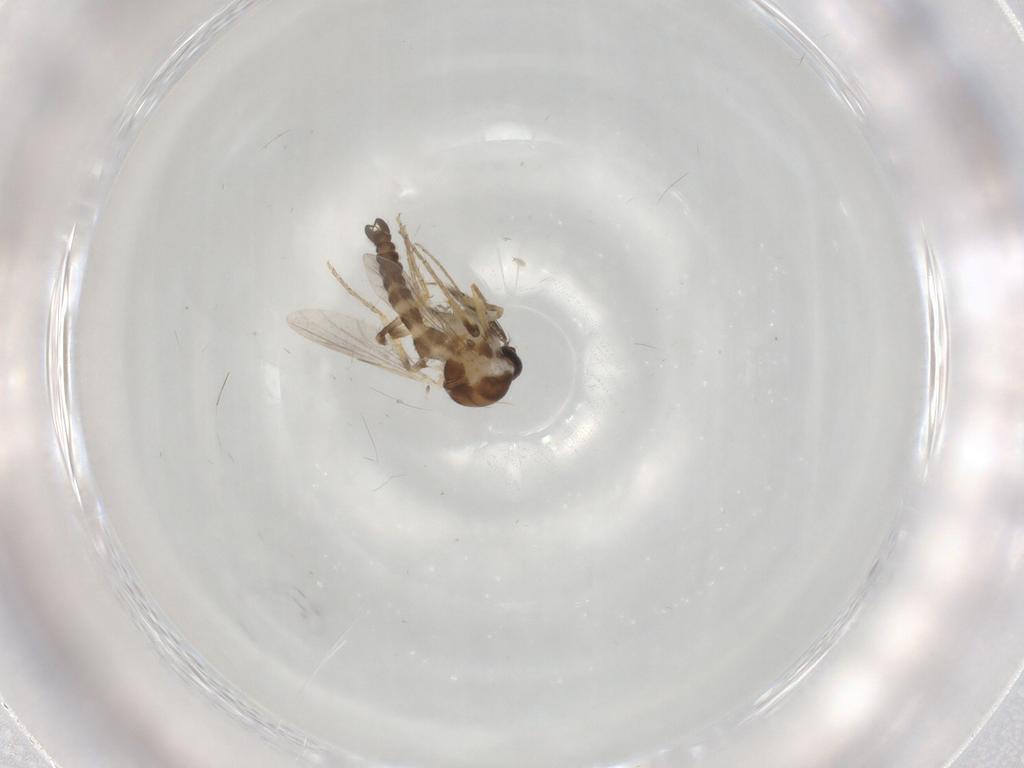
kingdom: Animalia
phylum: Arthropoda
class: Insecta
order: Diptera
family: Ceratopogonidae
